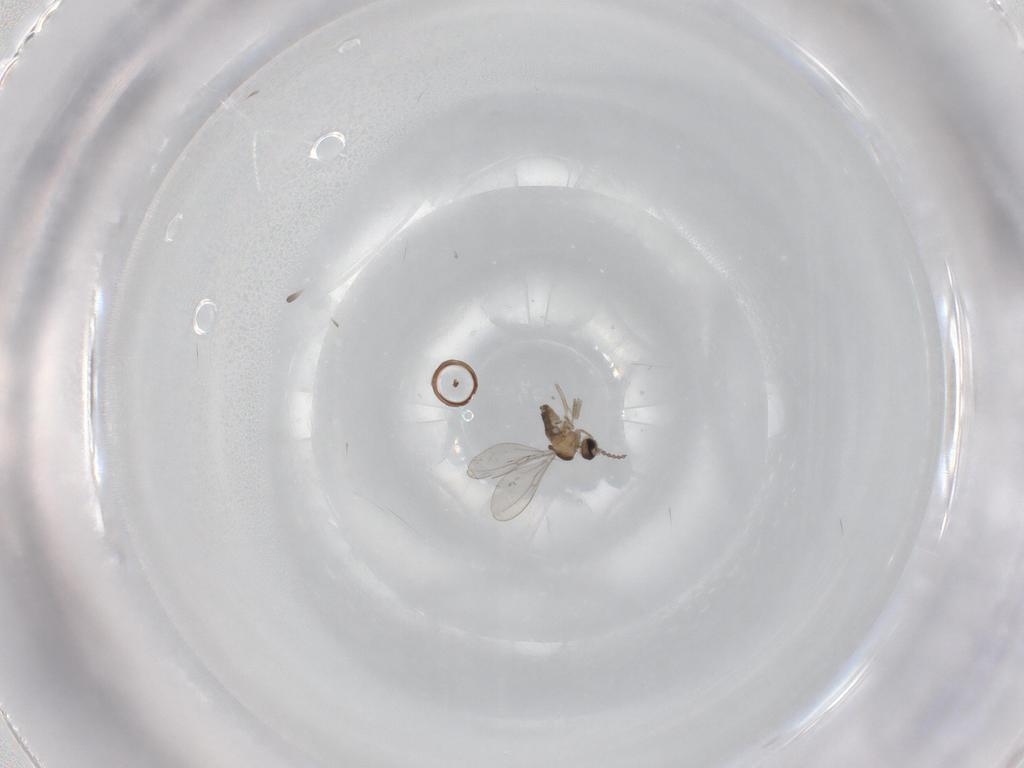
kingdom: Animalia
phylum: Arthropoda
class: Insecta
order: Diptera
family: Cecidomyiidae
